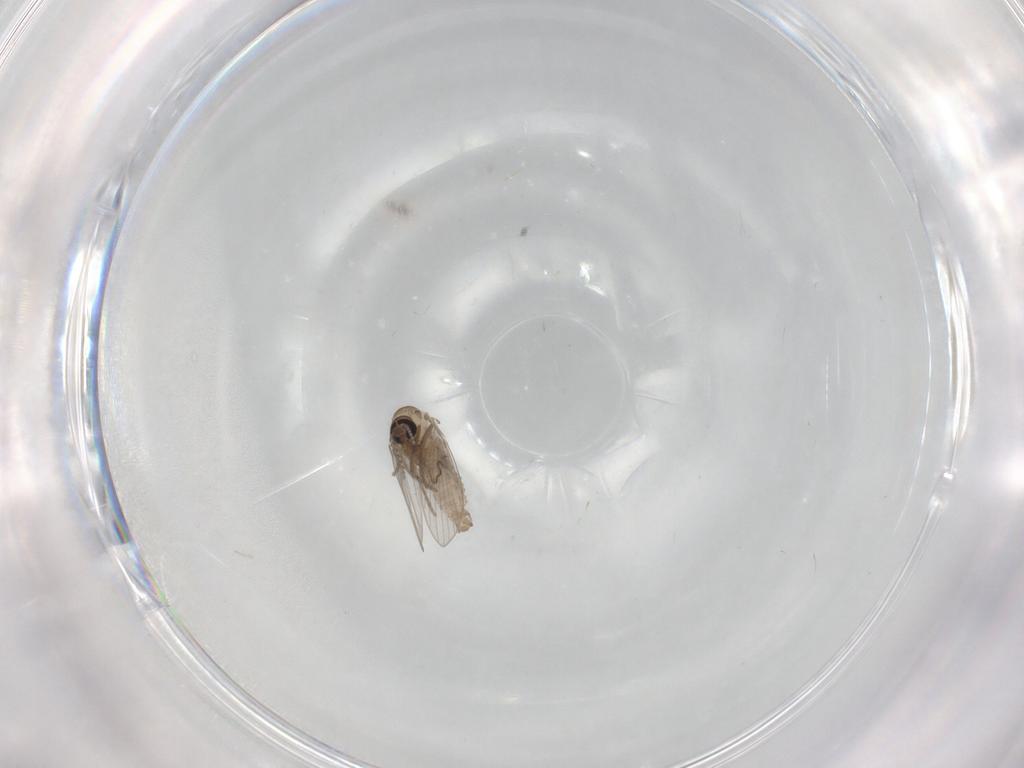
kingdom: Animalia
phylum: Arthropoda
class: Insecta
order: Diptera
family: Psychodidae
